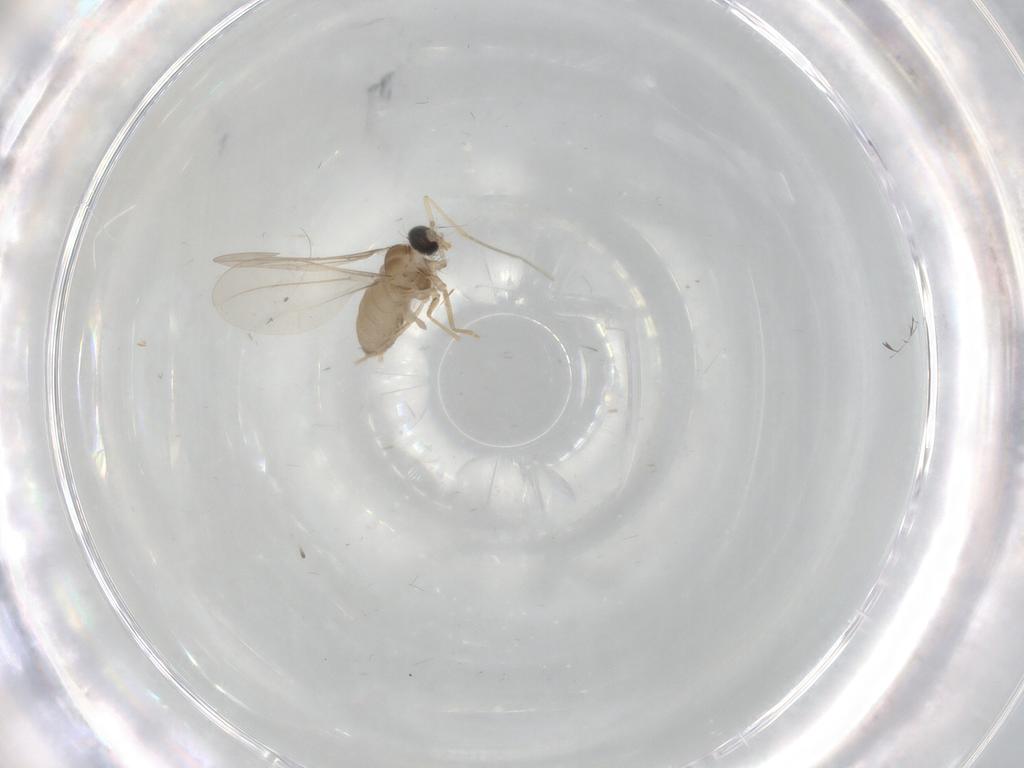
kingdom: Animalia
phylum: Arthropoda
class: Insecta
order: Diptera
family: Cecidomyiidae
